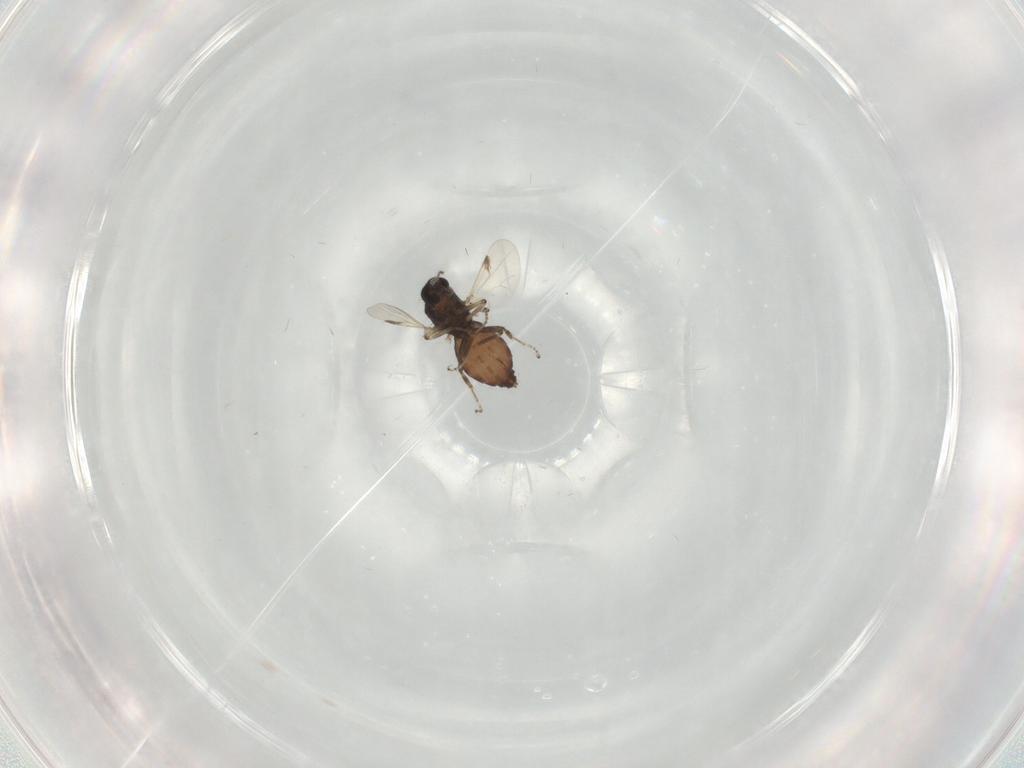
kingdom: Animalia
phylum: Arthropoda
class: Insecta
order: Diptera
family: Ceratopogonidae
